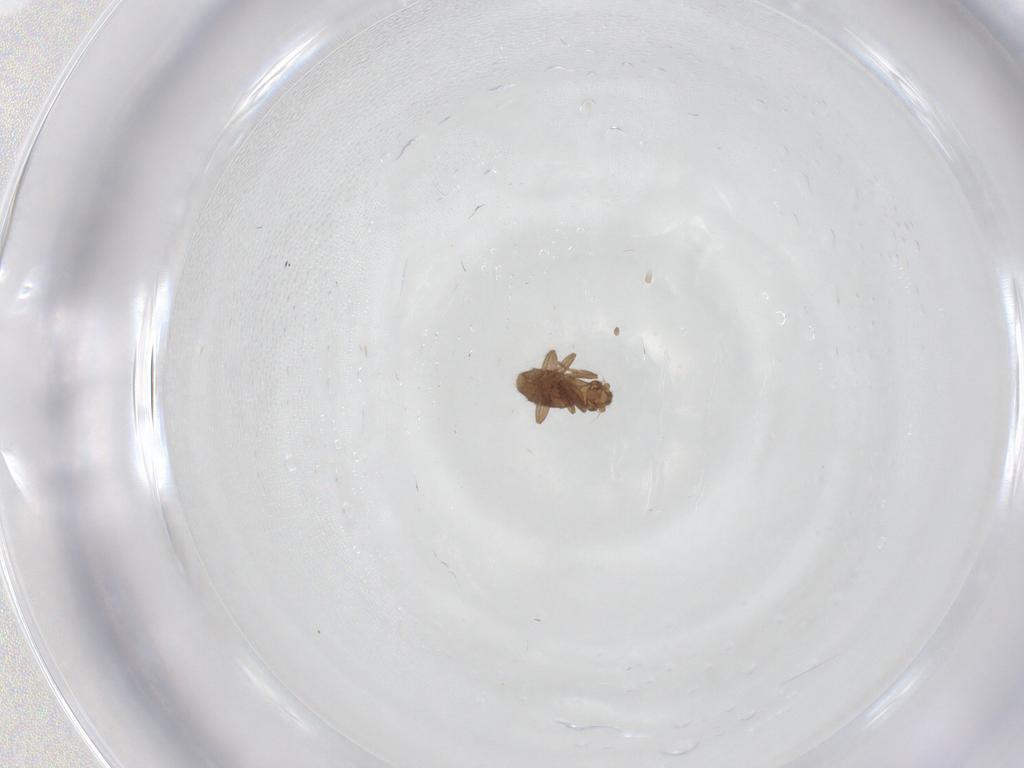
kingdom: Animalia
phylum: Arthropoda
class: Insecta
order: Diptera
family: Phoridae
